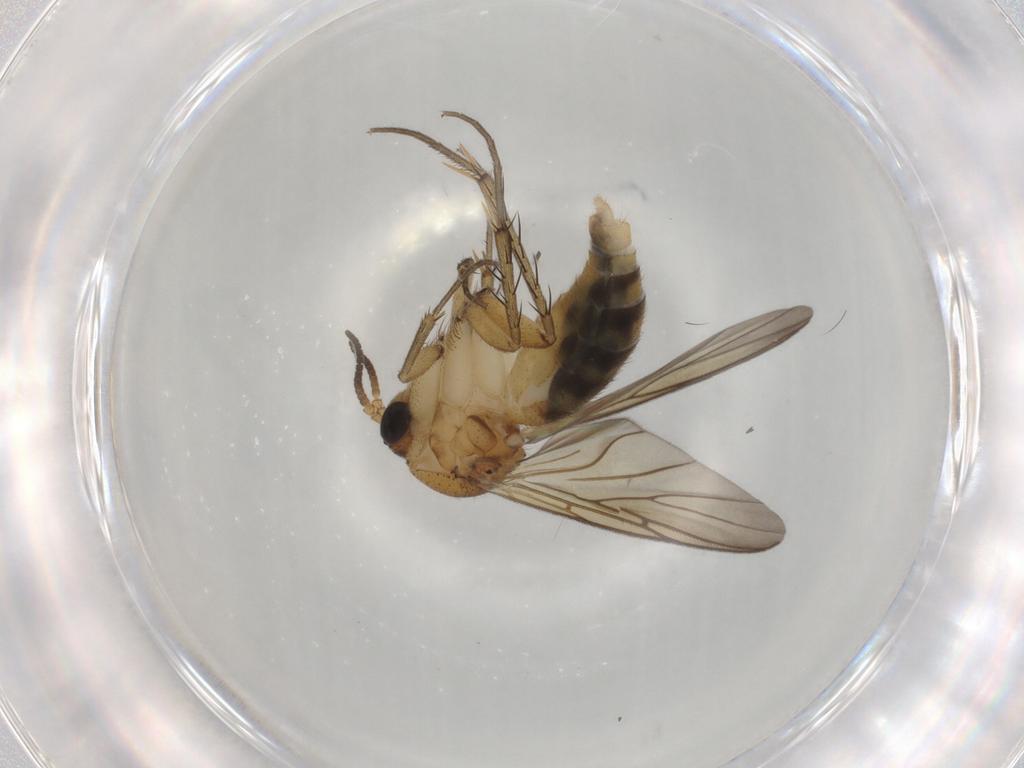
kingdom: Animalia
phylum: Arthropoda
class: Insecta
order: Diptera
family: Mycetophilidae
